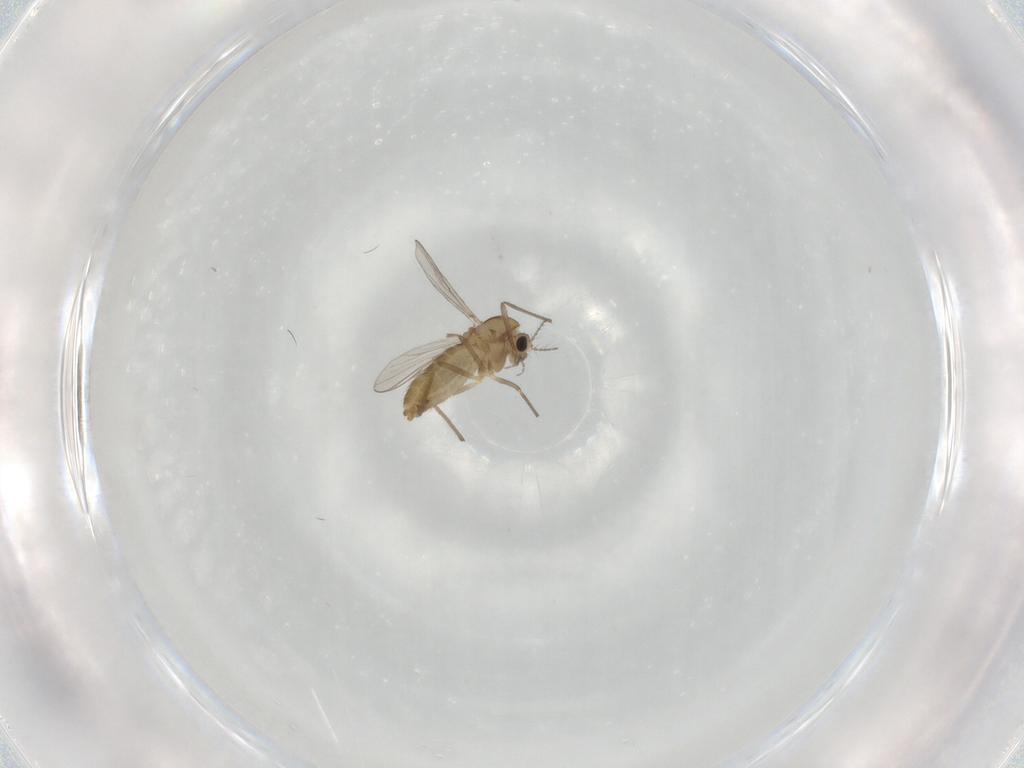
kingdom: Animalia
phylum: Arthropoda
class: Insecta
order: Diptera
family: Chironomidae
